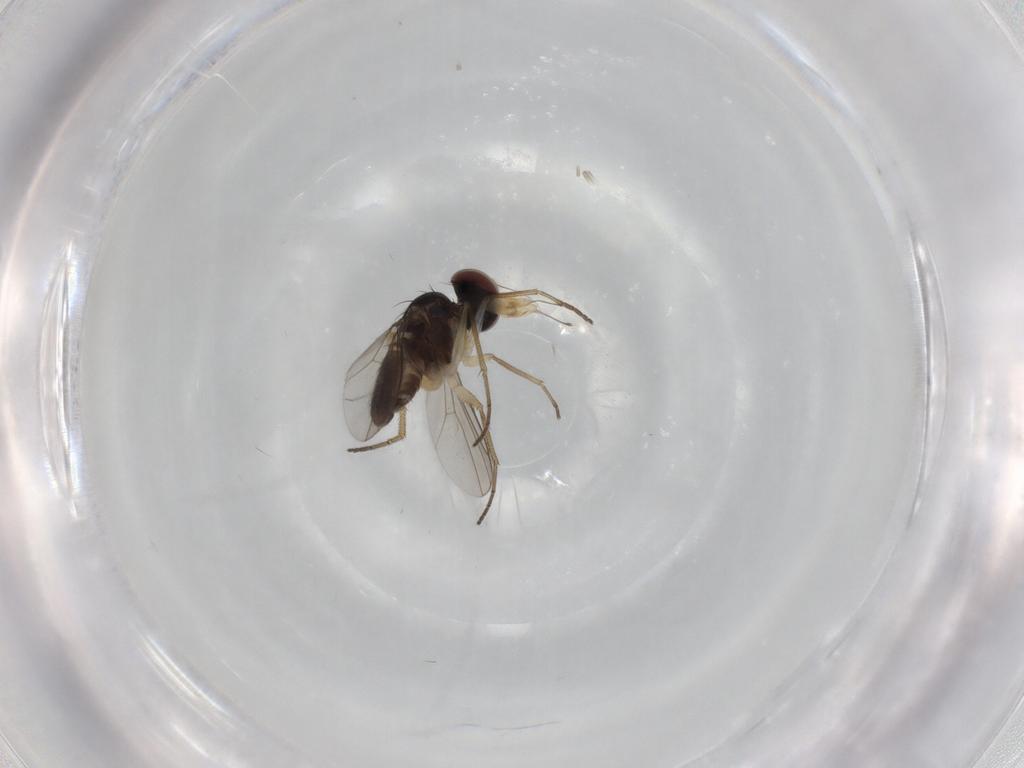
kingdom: Animalia
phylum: Arthropoda
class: Insecta
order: Diptera
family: Dolichopodidae
